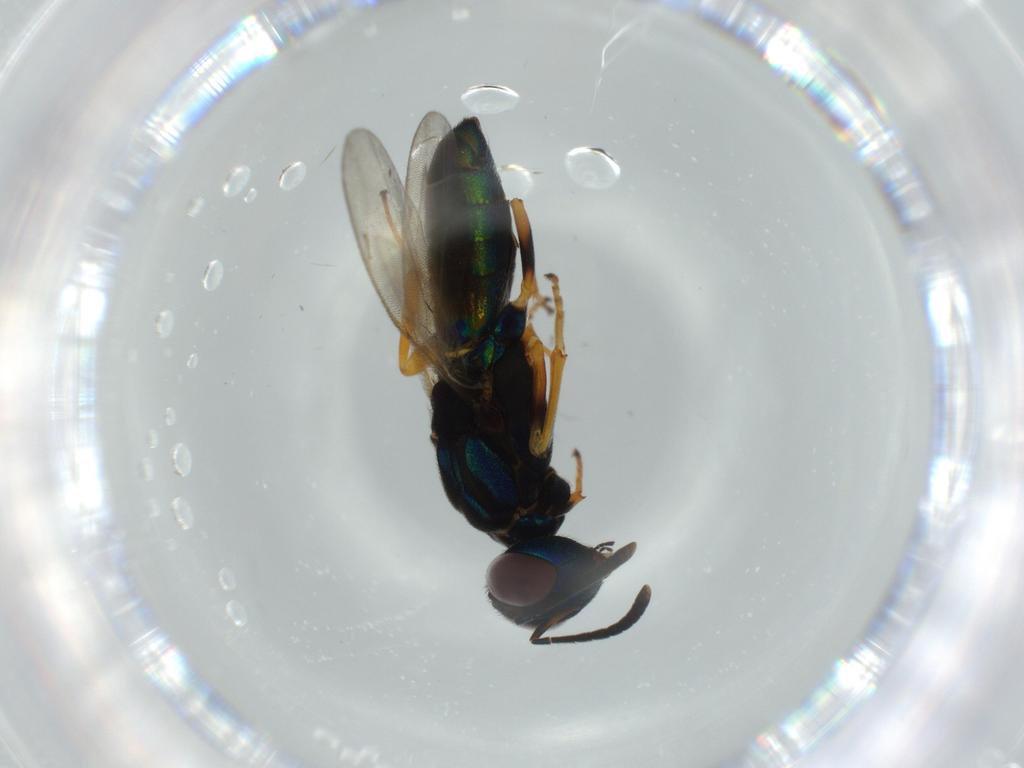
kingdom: Animalia
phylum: Arthropoda
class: Insecta
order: Hymenoptera
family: Eupelmidae
